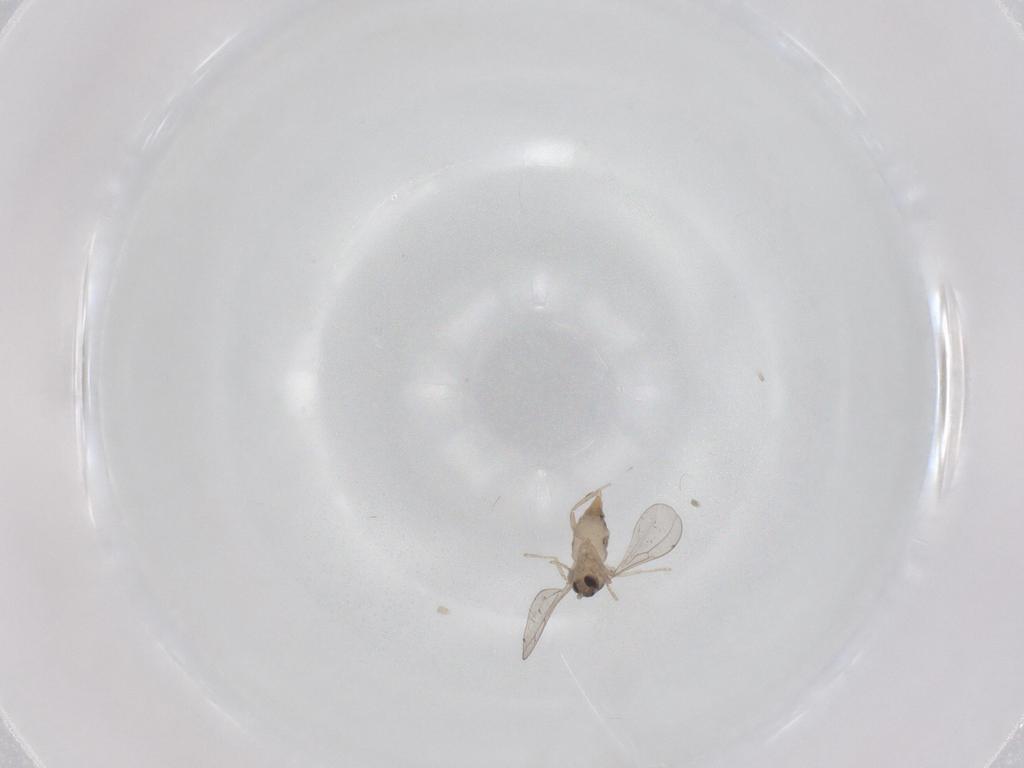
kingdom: Animalia
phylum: Arthropoda
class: Insecta
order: Diptera
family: Cecidomyiidae
